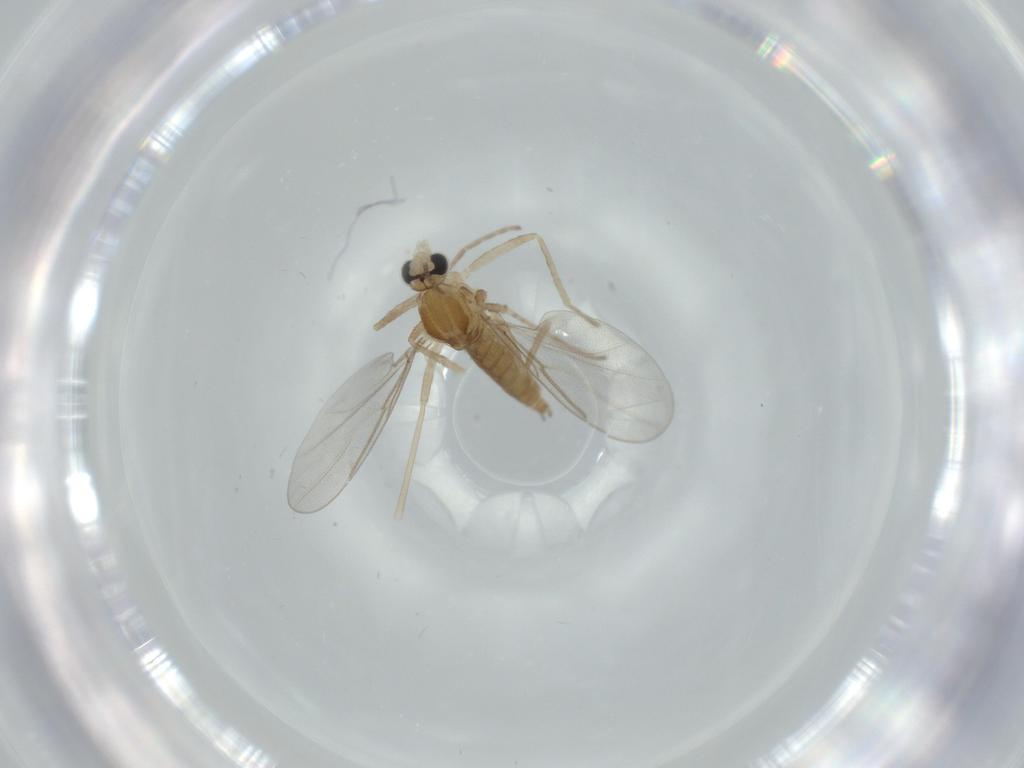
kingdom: Animalia
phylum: Arthropoda
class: Insecta
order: Diptera
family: Cecidomyiidae
